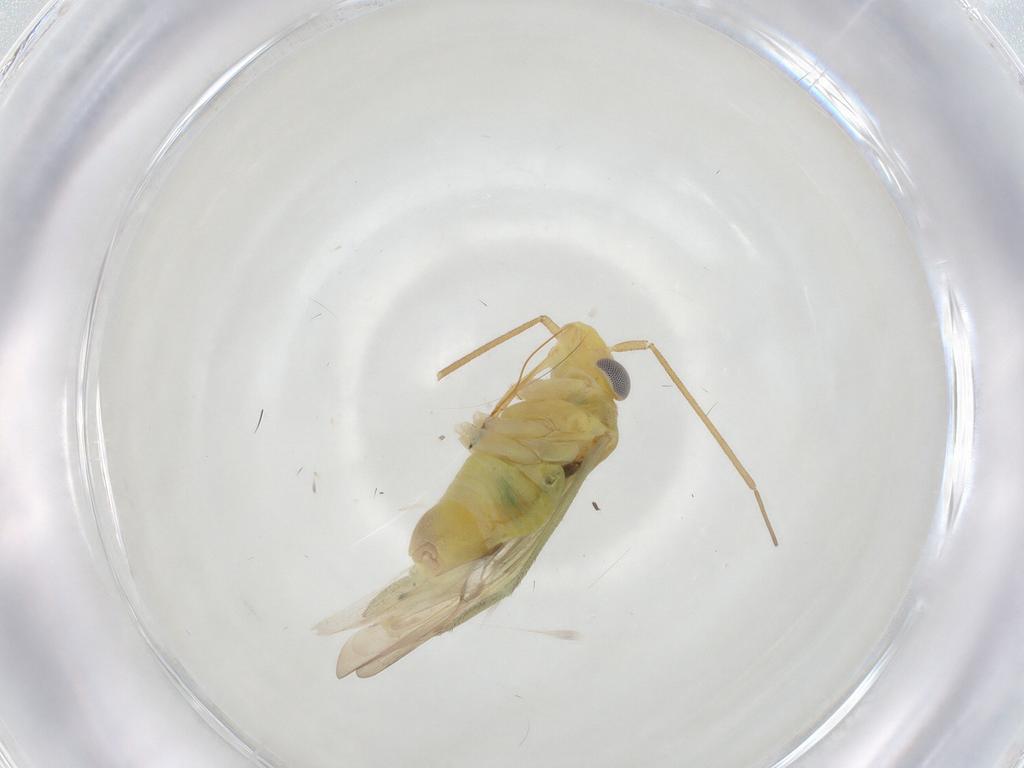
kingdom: Animalia
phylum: Arthropoda
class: Insecta
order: Hemiptera
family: Miridae
